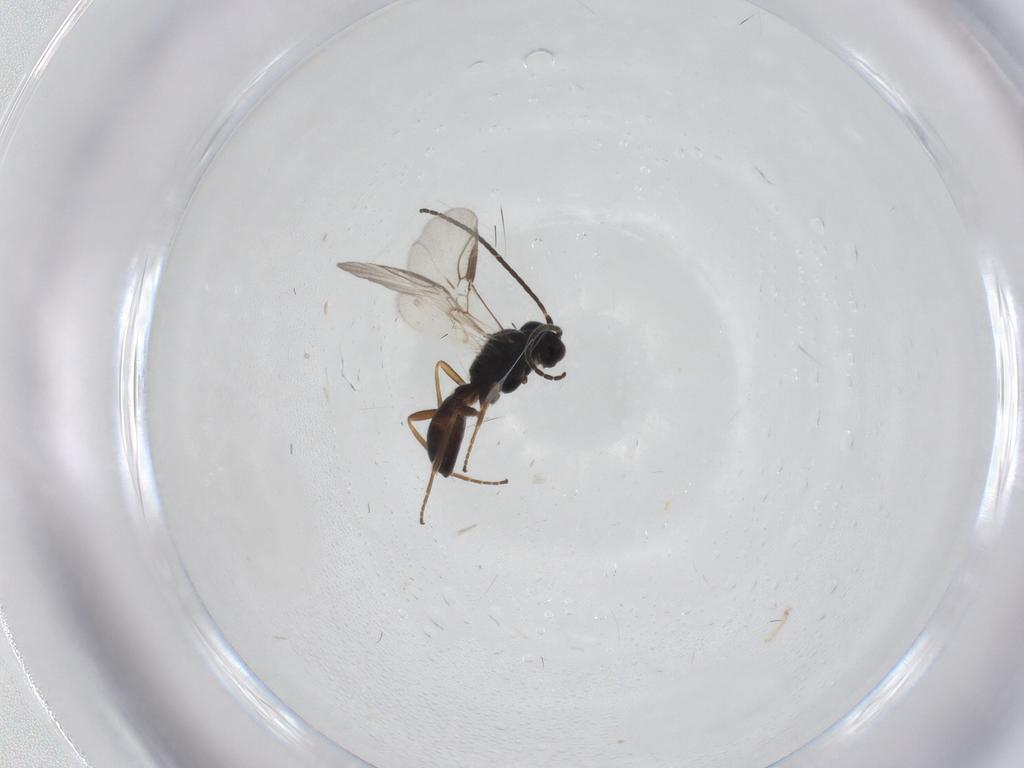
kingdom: Animalia
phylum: Arthropoda
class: Insecta
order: Hymenoptera
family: Braconidae
